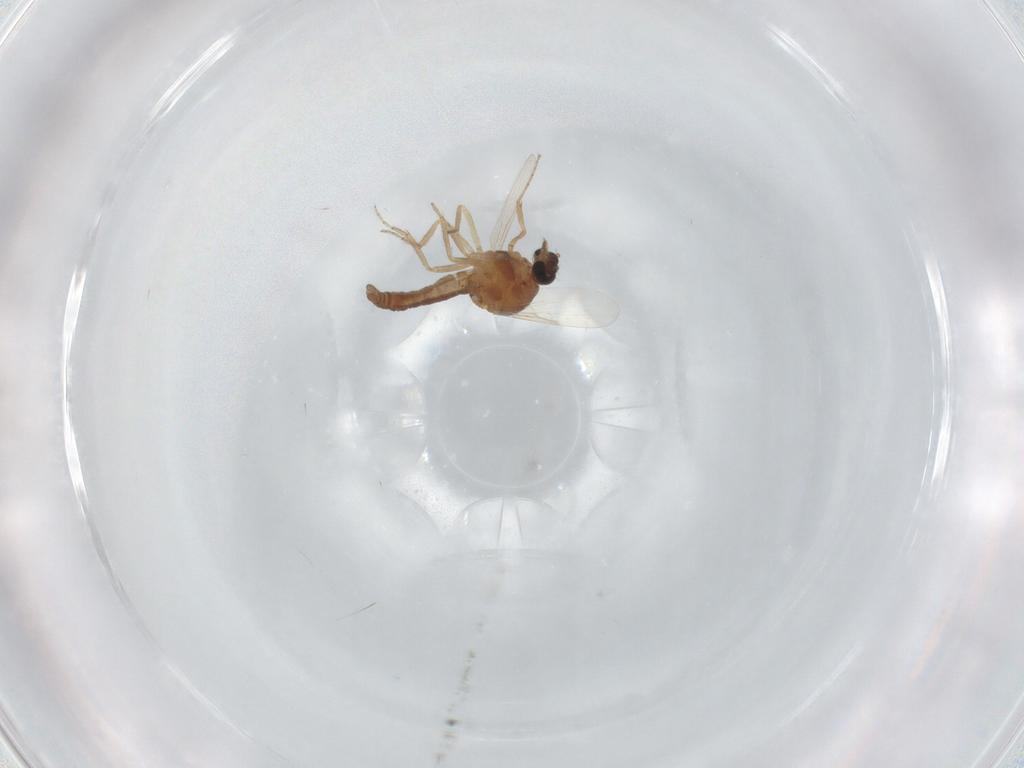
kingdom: Animalia
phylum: Arthropoda
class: Insecta
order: Diptera
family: Ceratopogonidae
